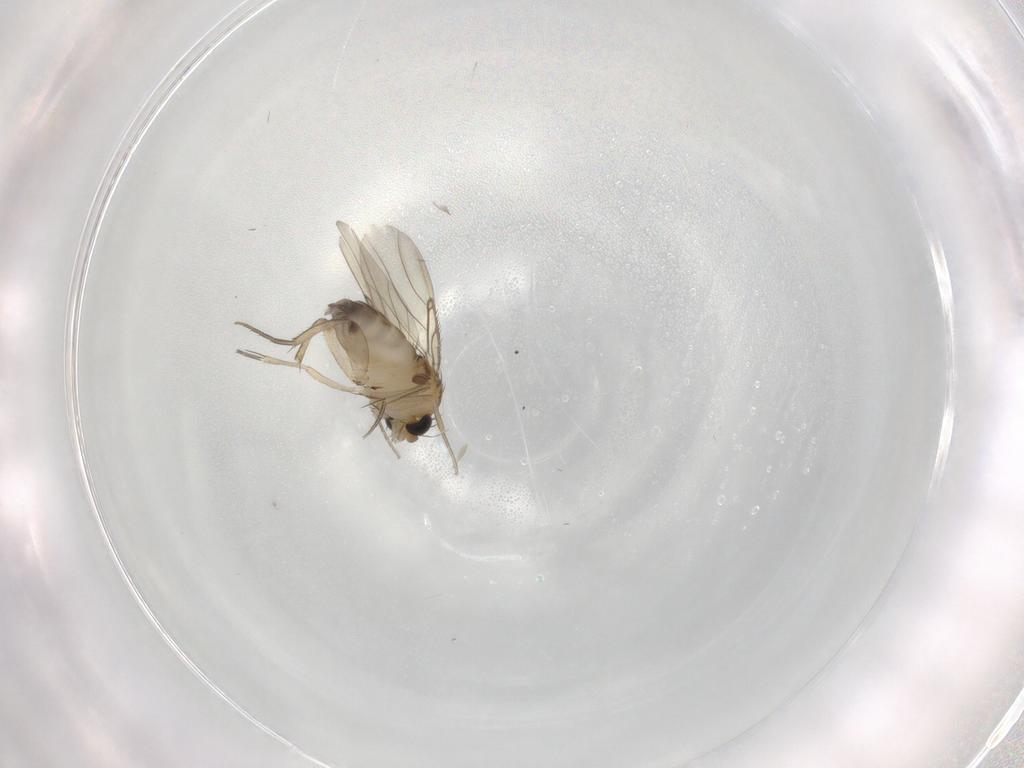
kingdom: Animalia
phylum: Arthropoda
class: Insecta
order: Diptera
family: Phoridae
